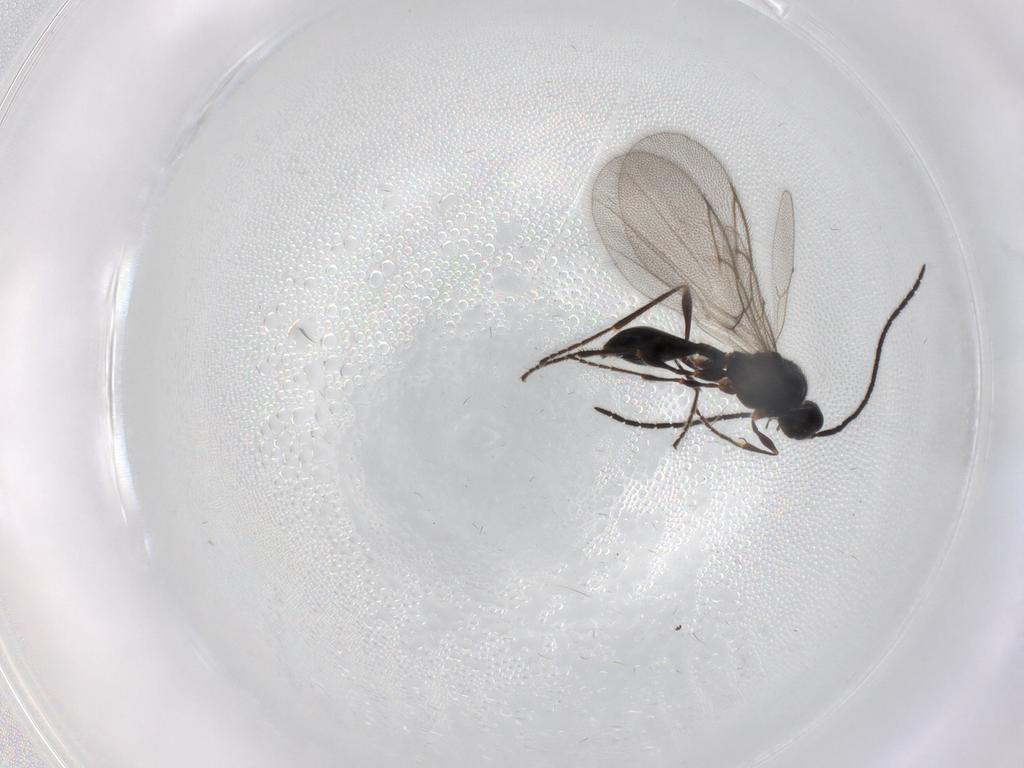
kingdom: Animalia
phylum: Arthropoda
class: Insecta
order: Hymenoptera
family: Diapriidae
